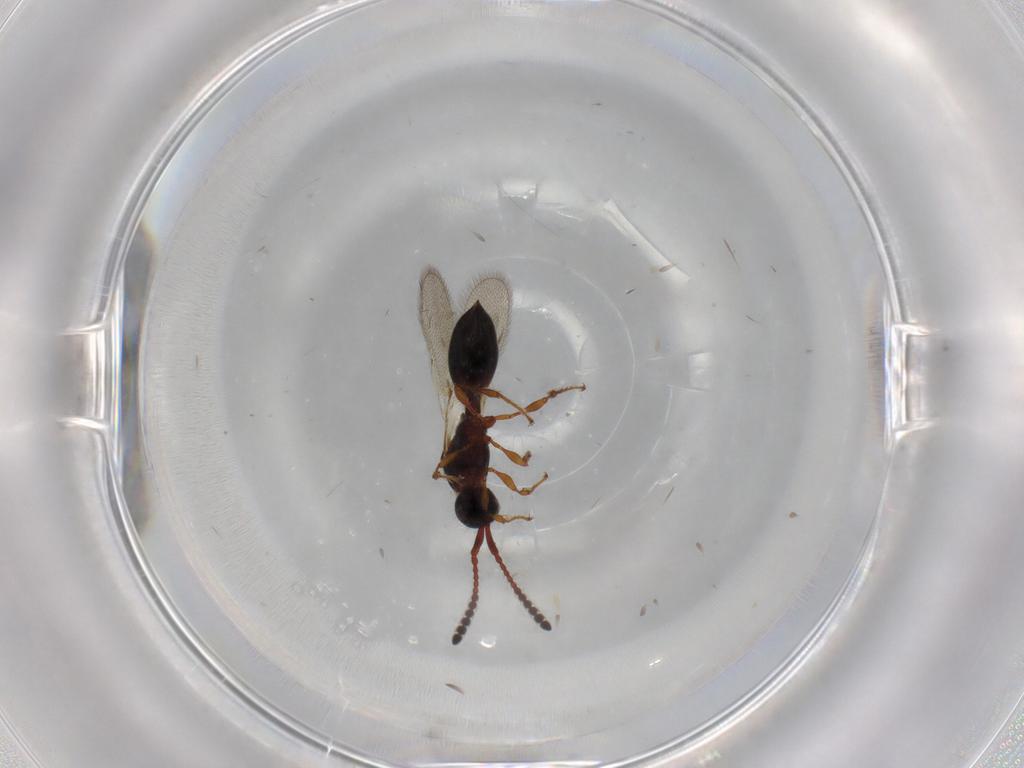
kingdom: Animalia
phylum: Arthropoda
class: Insecta
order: Hymenoptera
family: Diapriidae
